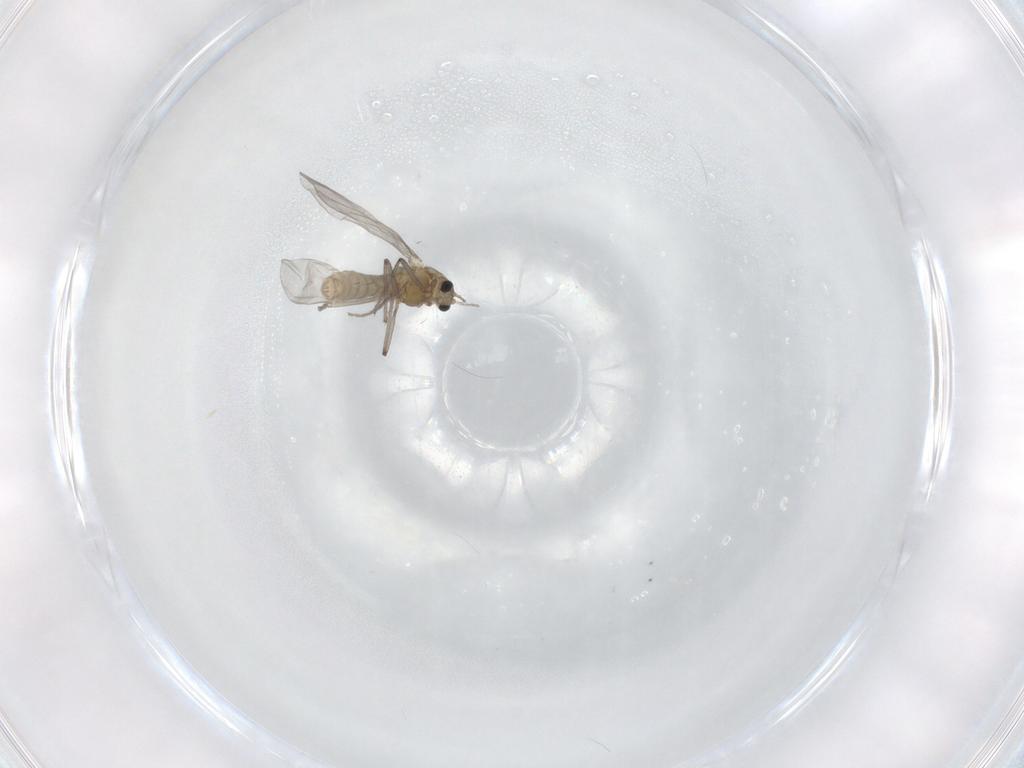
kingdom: Animalia
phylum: Arthropoda
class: Insecta
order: Diptera
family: Chironomidae
